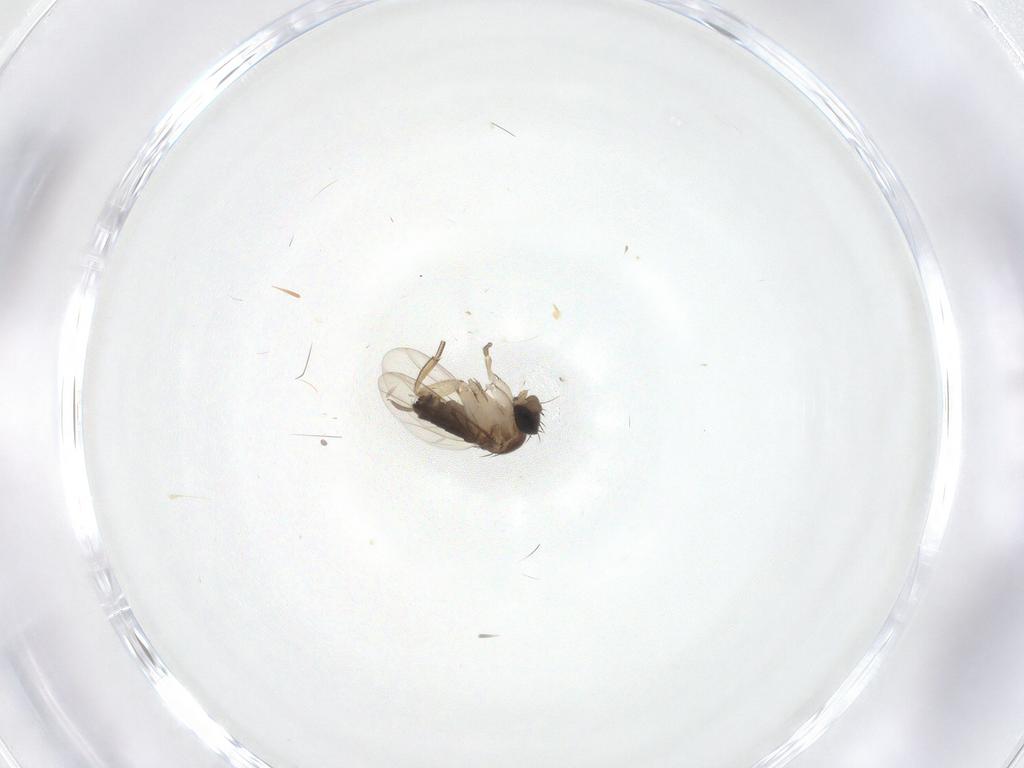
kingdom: Animalia
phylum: Arthropoda
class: Insecta
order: Diptera
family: Phoridae
